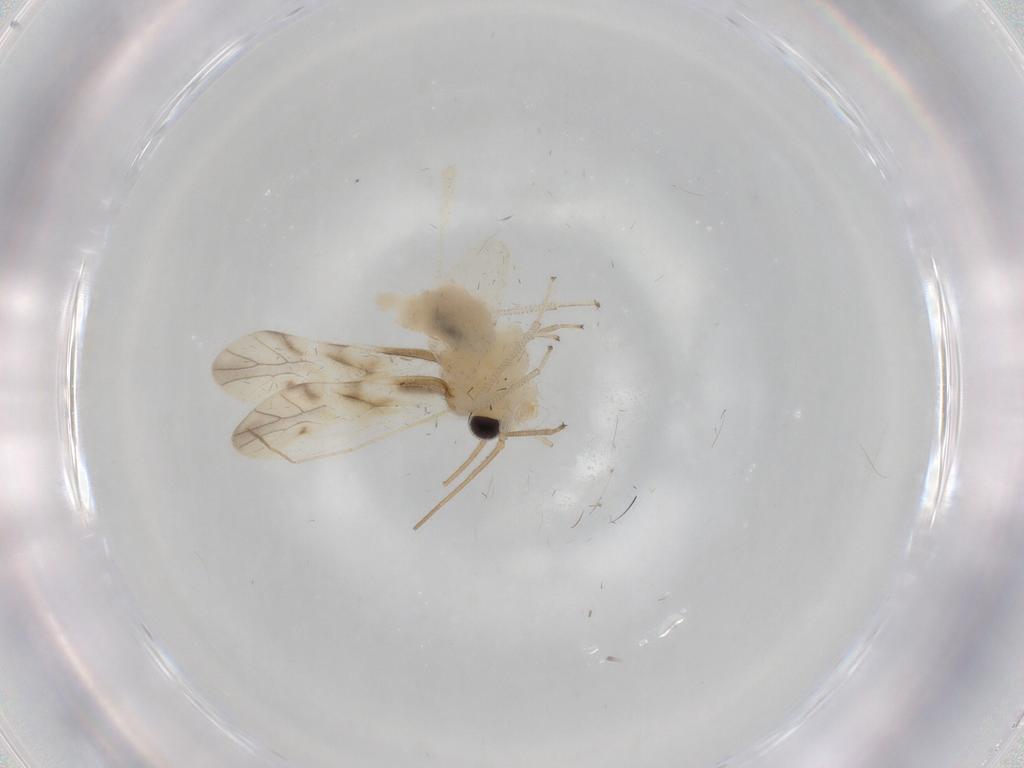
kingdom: Animalia
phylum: Arthropoda
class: Insecta
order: Psocodea
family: Caeciliusidae
